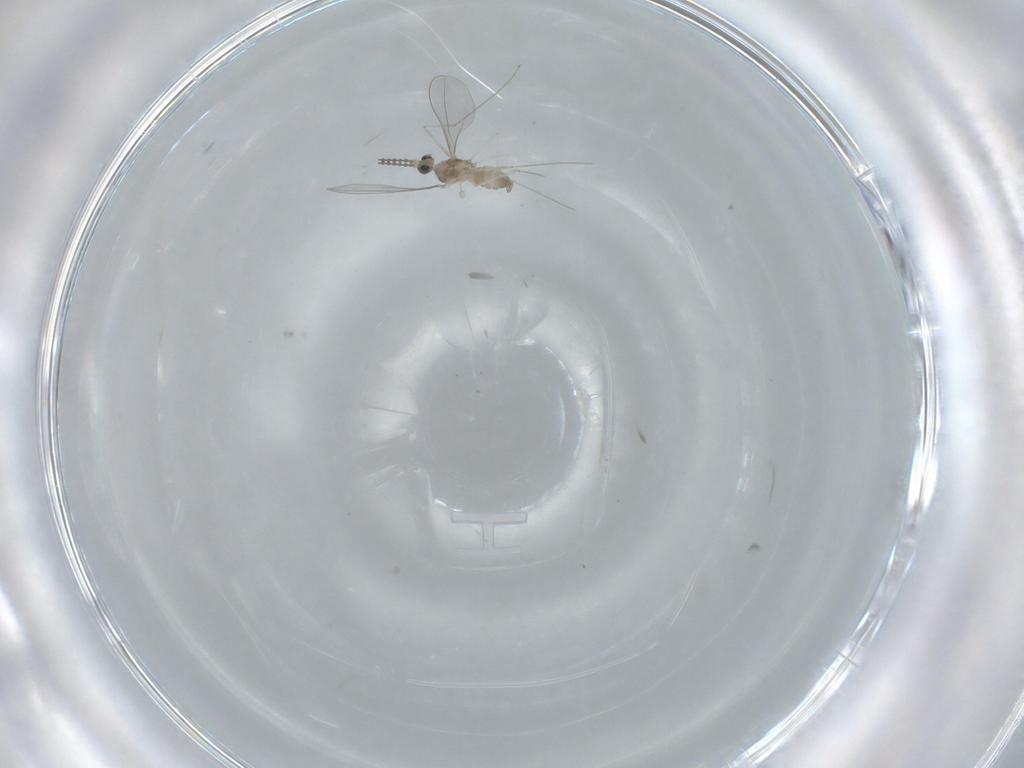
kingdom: Animalia
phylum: Arthropoda
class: Insecta
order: Diptera
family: Cecidomyiidae
